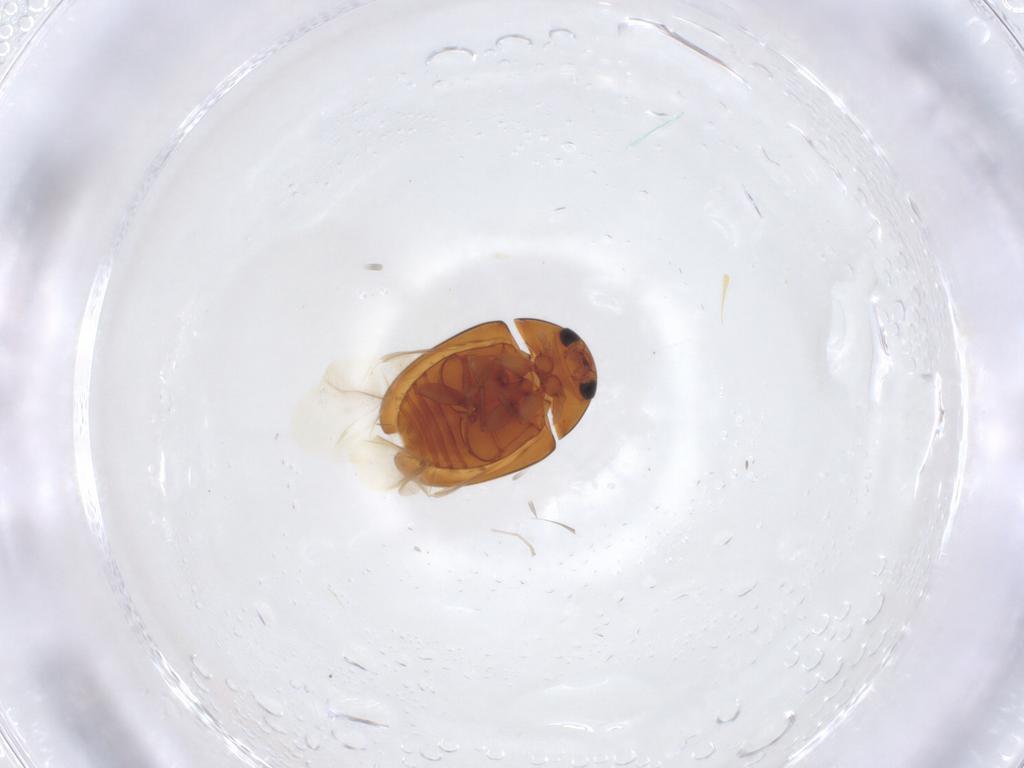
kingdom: Animalia
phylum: Arthropoda
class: Insecta
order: Coleoptera
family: Phalacridae
